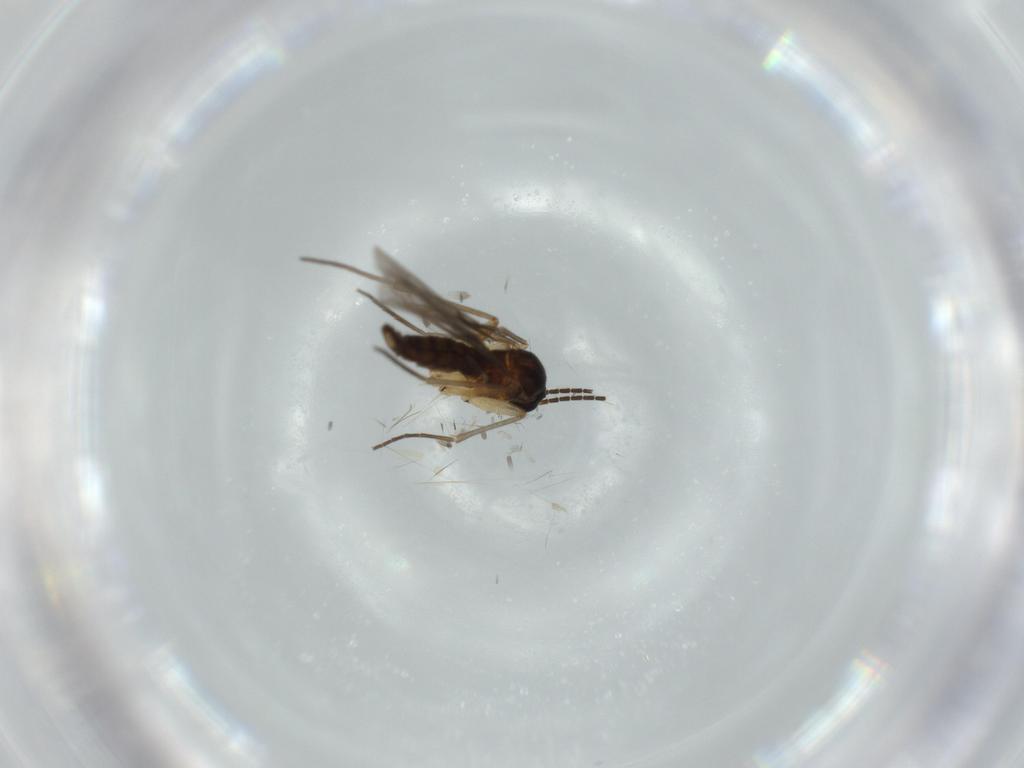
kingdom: Animalia
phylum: Arthropoda
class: Insecta
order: Diptera
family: Sciaridae
